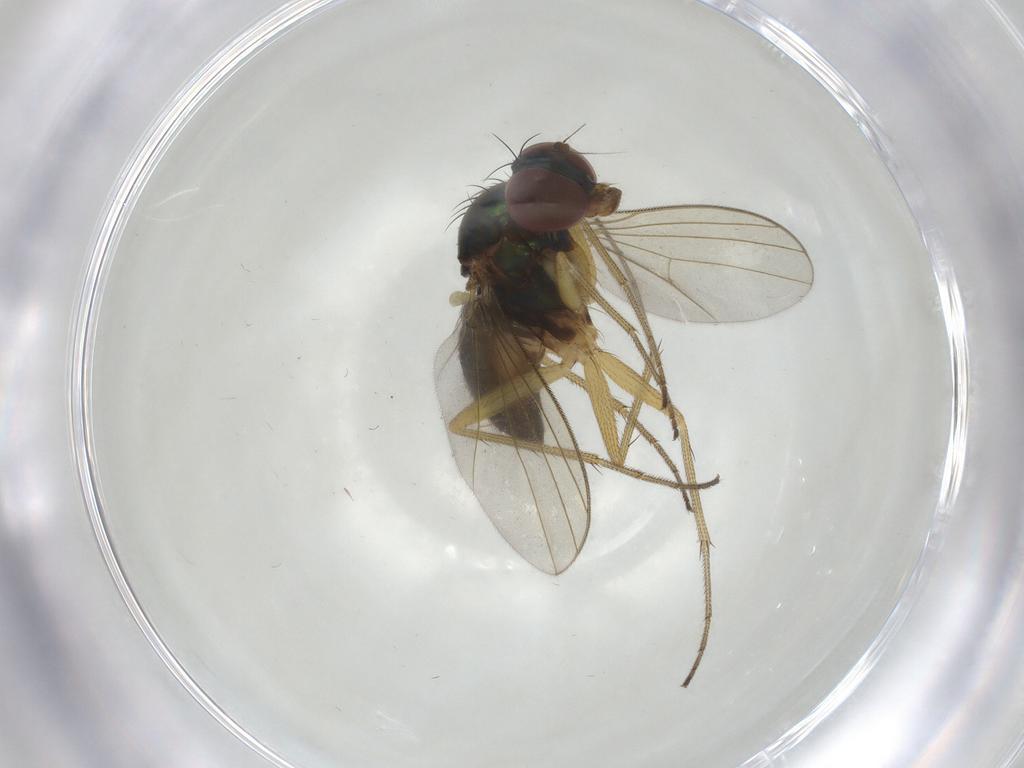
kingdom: Animalia
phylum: Arthropoda
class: Insecta
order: Diptera
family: Dolichopodidae
